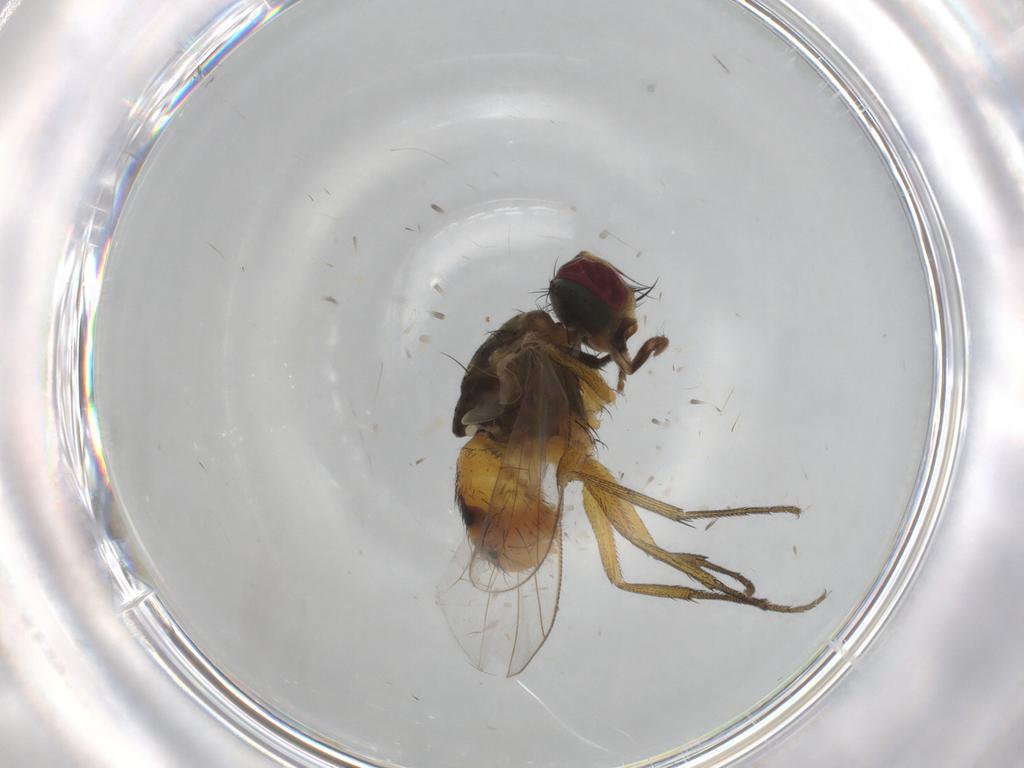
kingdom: Animalia
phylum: Arthropoda
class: Insecta
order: Diptera
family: Muscidae
